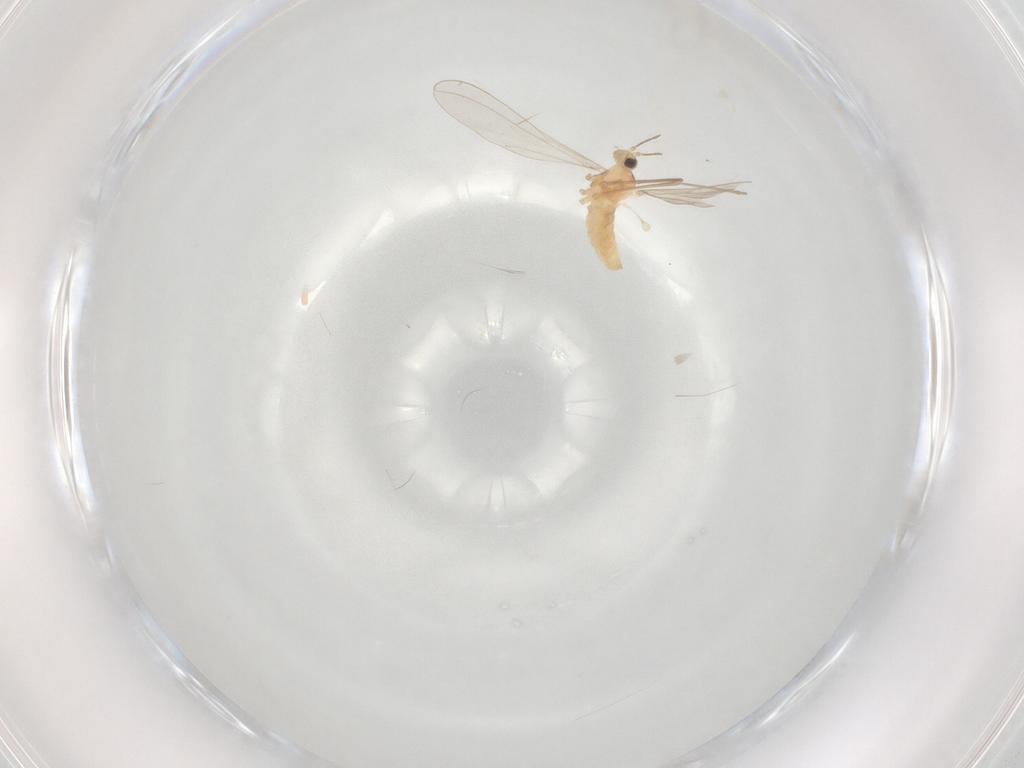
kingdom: Animalia
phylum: Arthropoda
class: Insecta
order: Diptera
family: Cecidomyiidae
